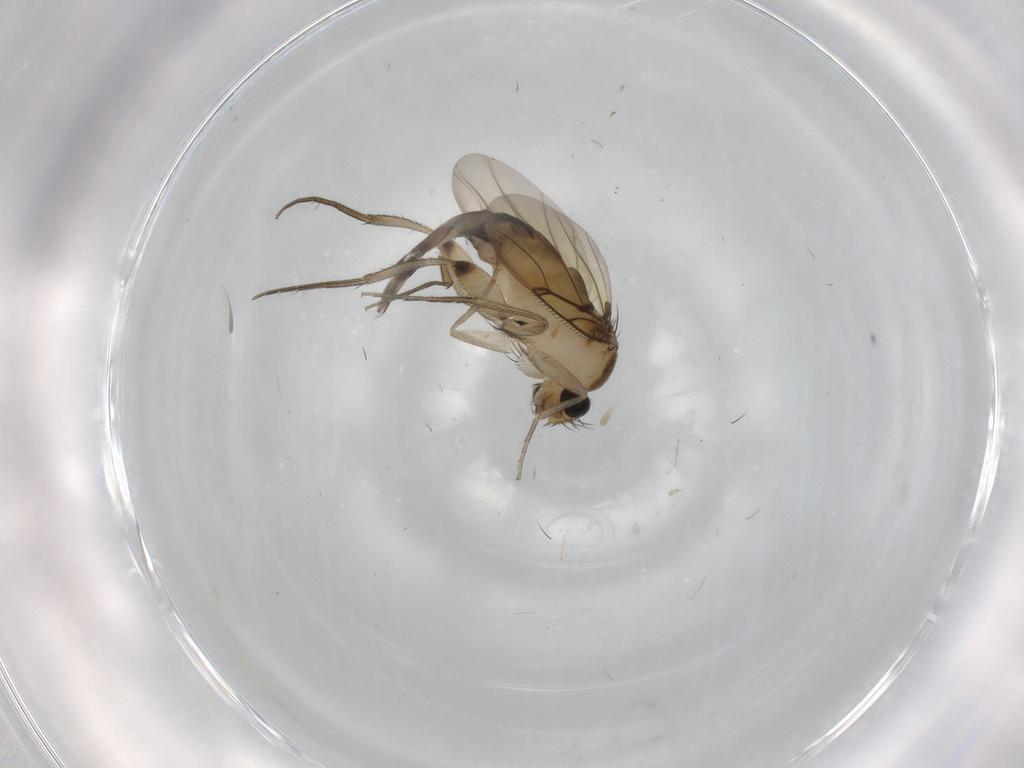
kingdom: Animalia
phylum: Arthropoda
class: Insecta
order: Diptera
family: Phoridae
